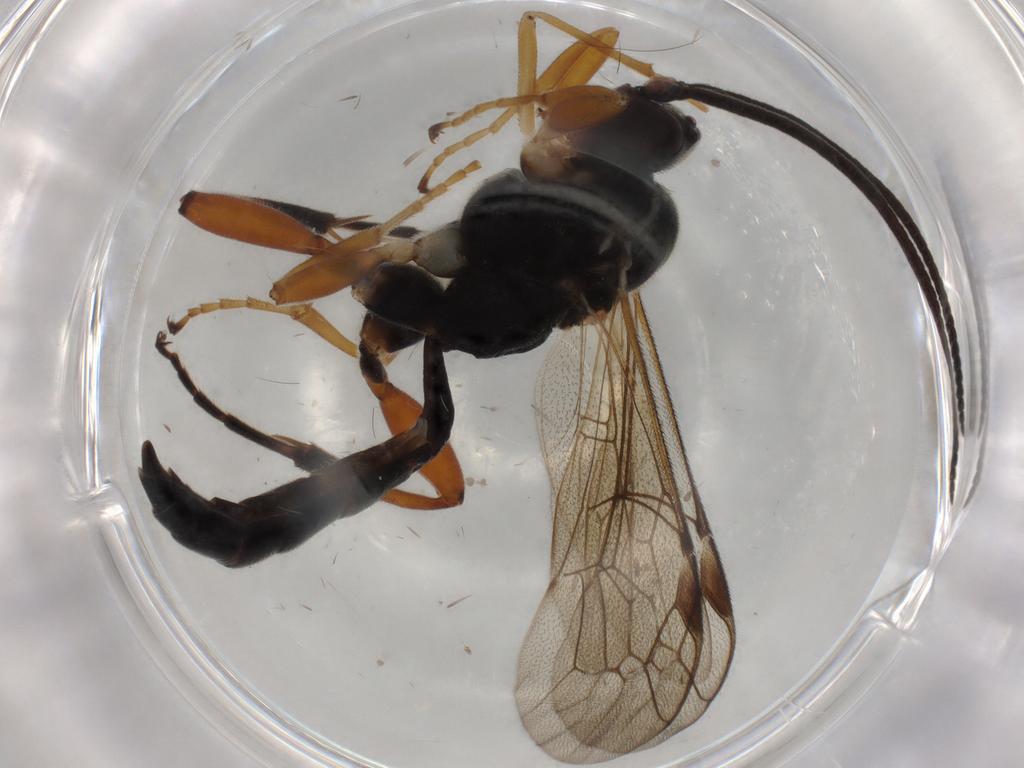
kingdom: Animalia
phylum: Arthropoda
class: Insecta
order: Hymenoptera
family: Ichneumonidae
